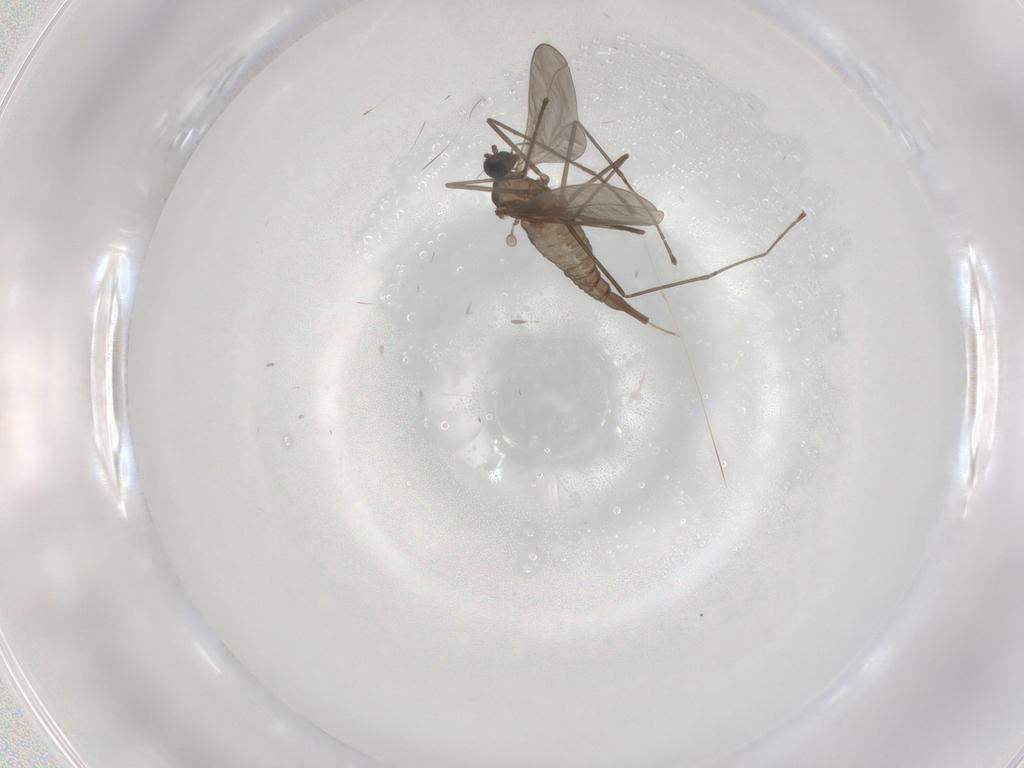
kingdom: Animalia
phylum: Arthropoda
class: Insecta
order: Diptera
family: Cecidomyiidae
